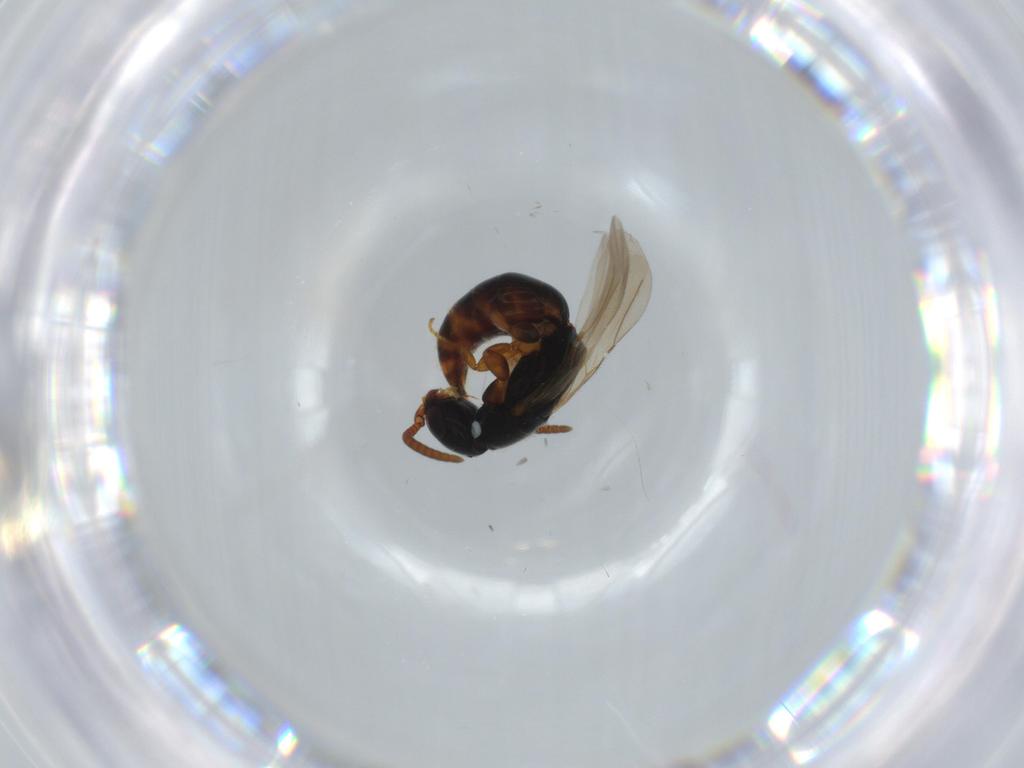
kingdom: Animalia
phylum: Arthropoda
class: Insecta
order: Hymenoptera
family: Bethylidae
